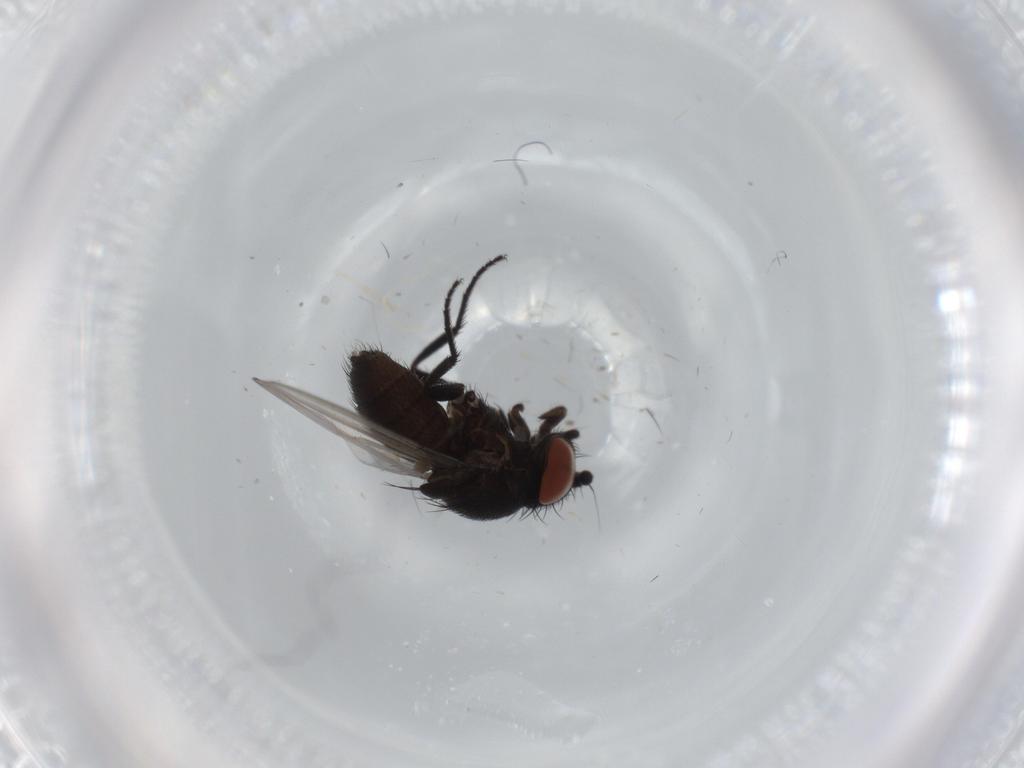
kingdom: Animalia
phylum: Arthropoda
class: Insecta
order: Diptera
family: Milichiidae
